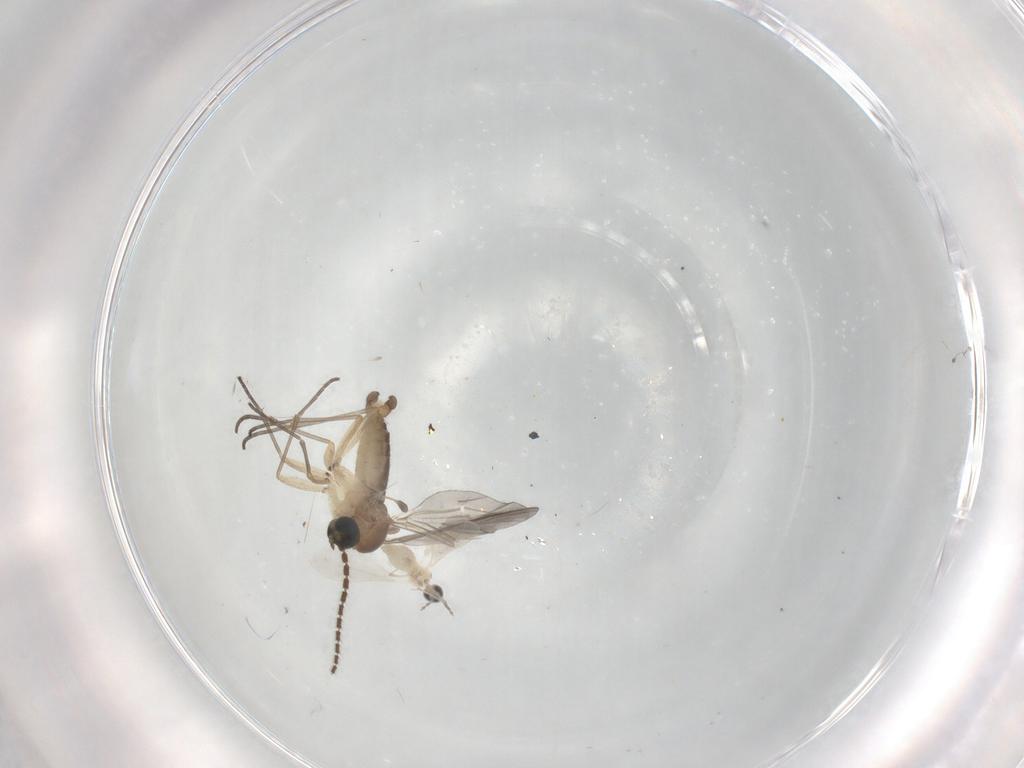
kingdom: Animalia
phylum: Arthropoda
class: Insecta
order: Diptera
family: Cecidomyiidae
